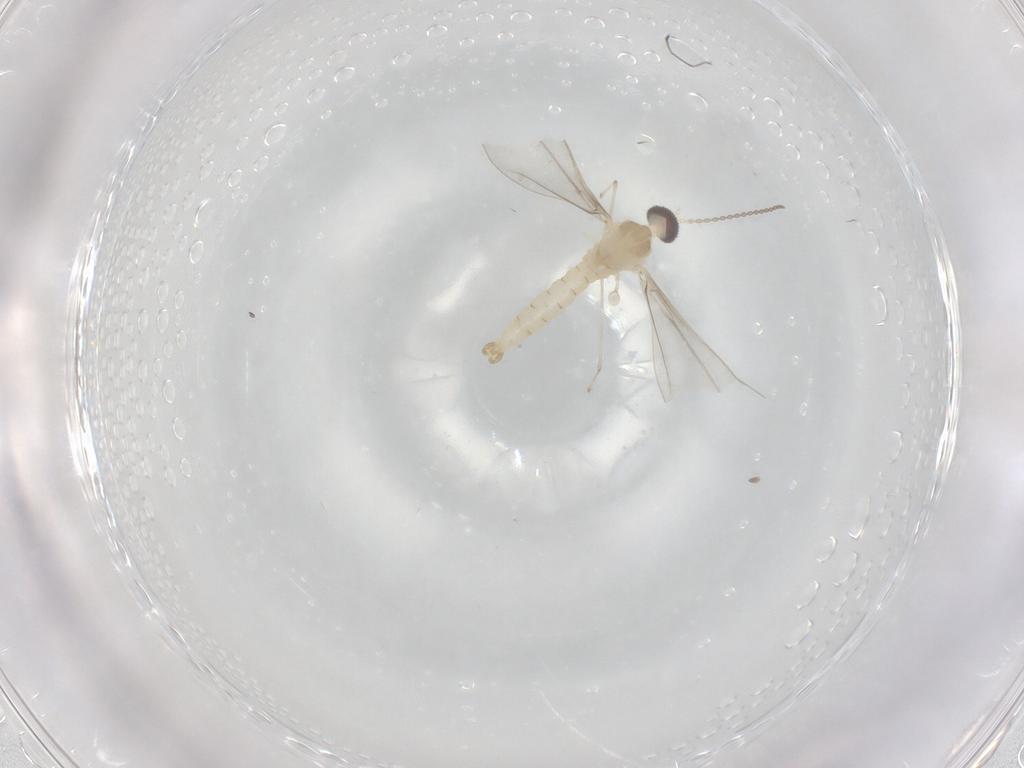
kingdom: Animalia
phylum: Arthropoda
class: Insecta
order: Diptera
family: Cecidomyiidae
